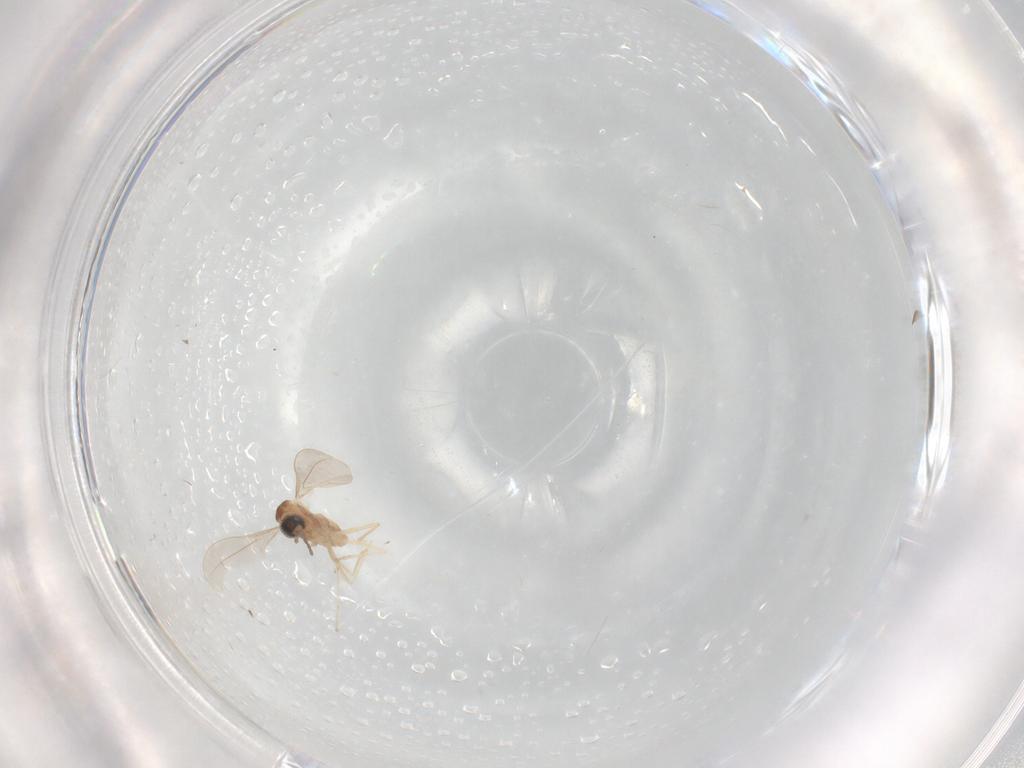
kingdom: Animalia
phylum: Arthropoda
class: Insecta
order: Diptera
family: Cecidomyiidae
